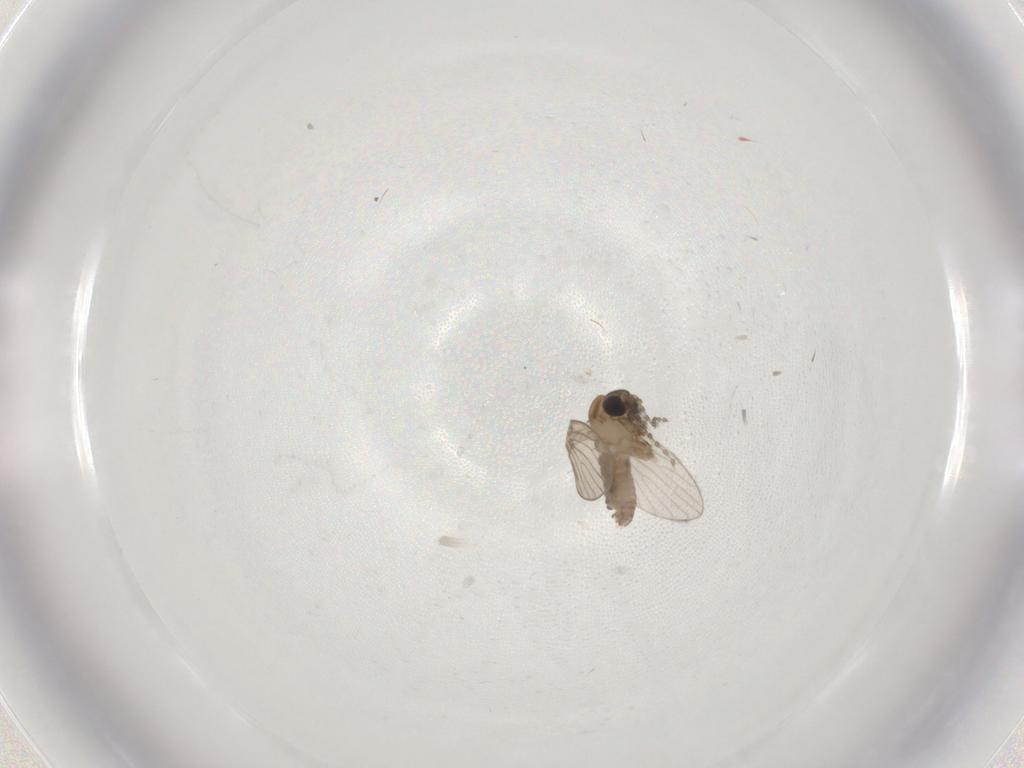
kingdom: Animalia
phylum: Arthropoda
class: Insecta
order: Diptera
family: Psychodidae
